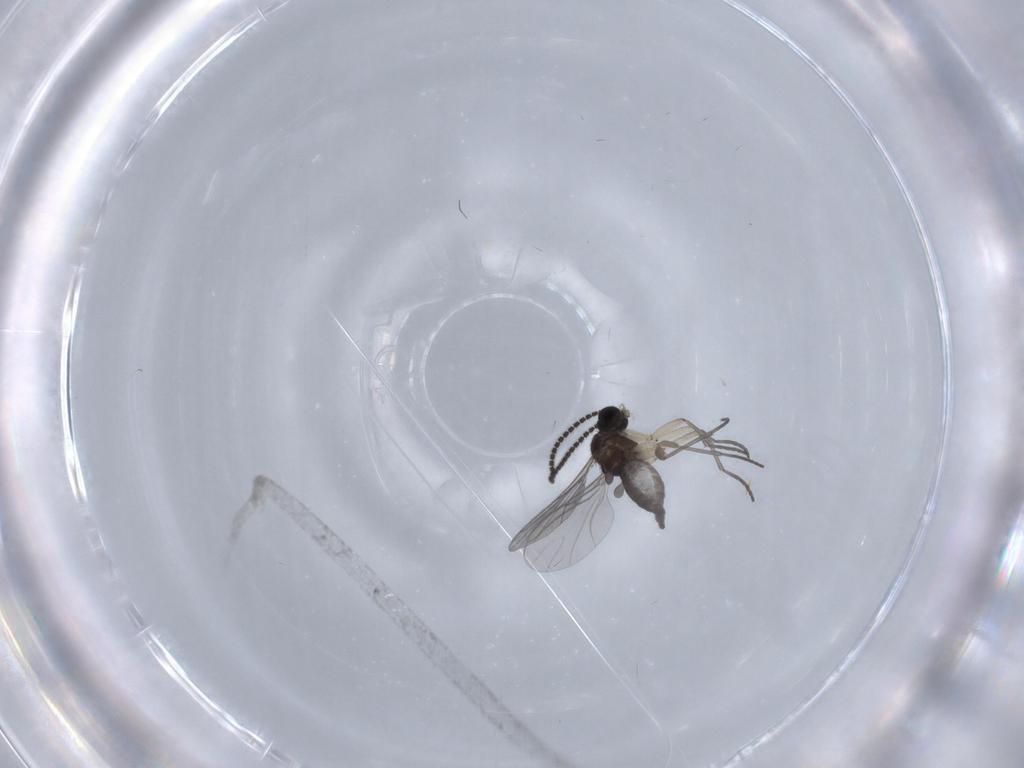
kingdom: Animalia
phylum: Arthropoda
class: Insecta
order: Diptera
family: Sciaridae
